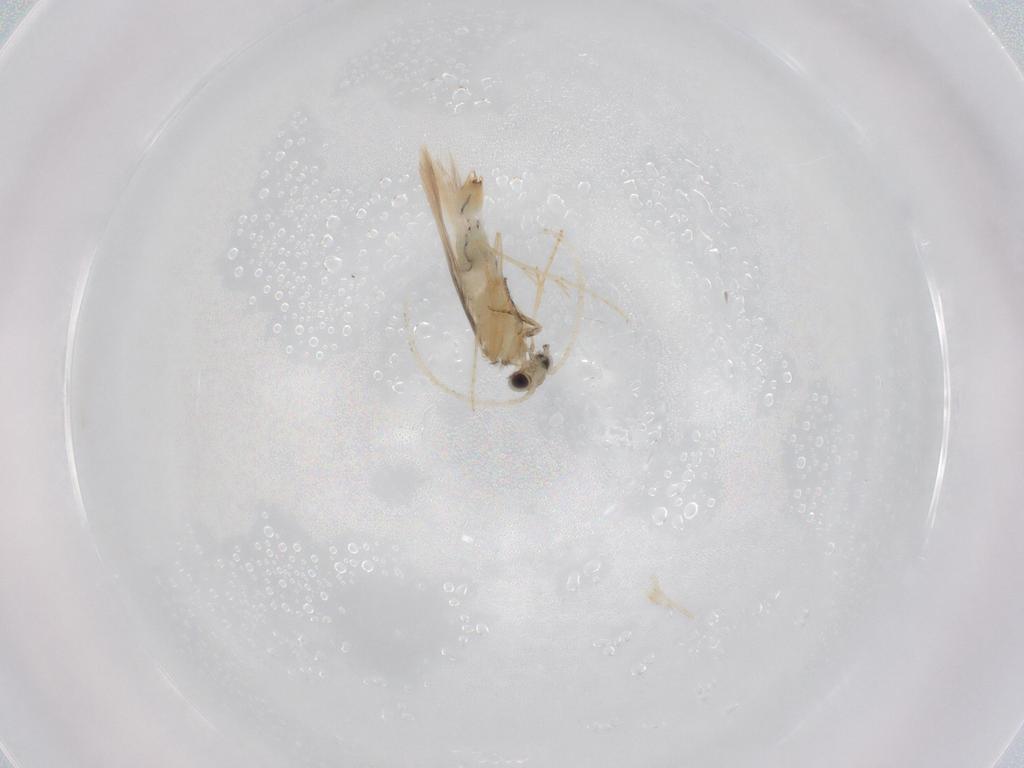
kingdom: Animalia
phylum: Arthropoda
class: Insecta
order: Trichoptera
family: Hydroptilidae
